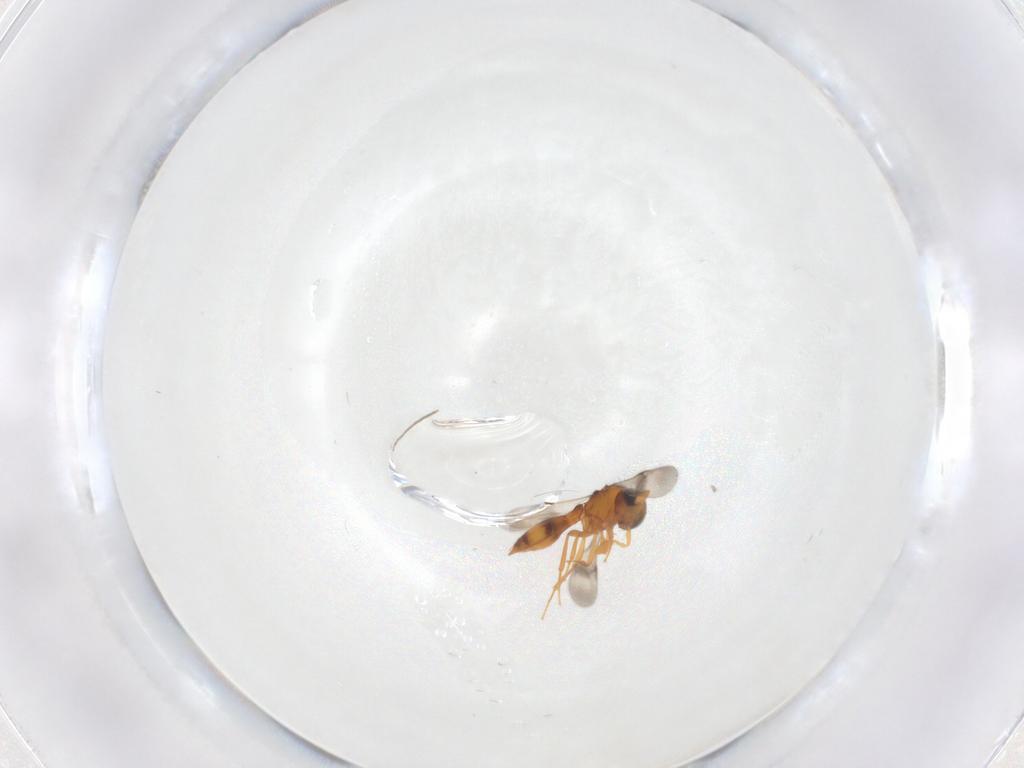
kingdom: Animalia
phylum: Arthropoda
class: Insecta
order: Hymenoptera
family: Scelionidae
